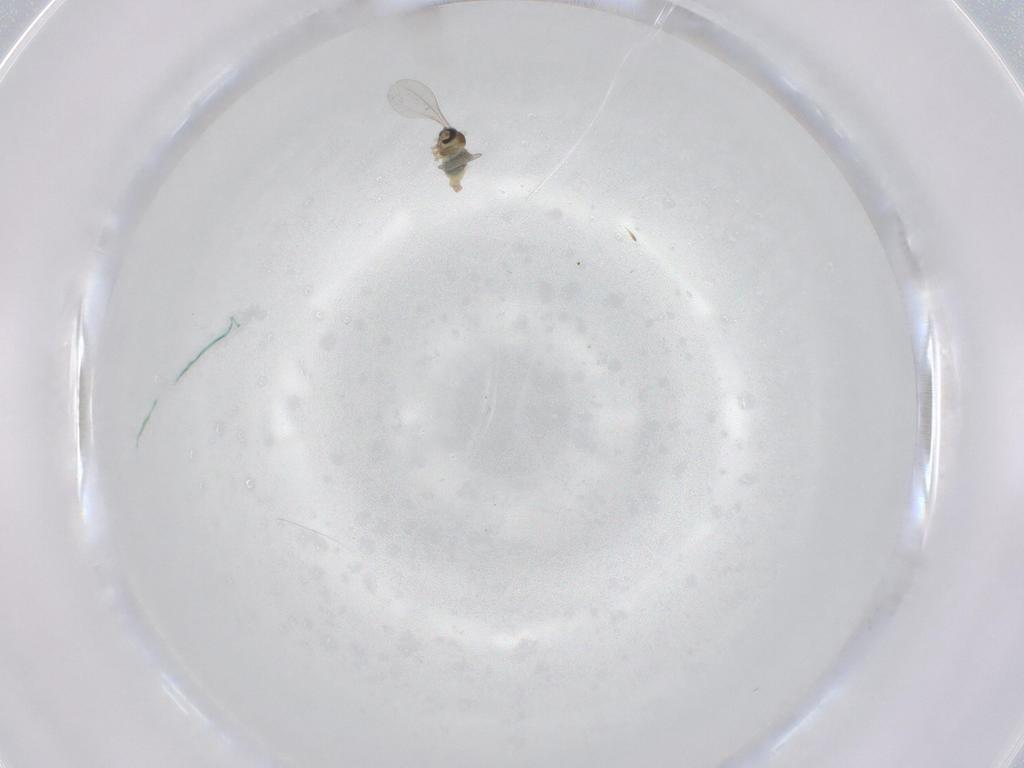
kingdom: Animalia
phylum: Arthropoda
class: Insecta
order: Diptera
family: Cecidomyiidae
